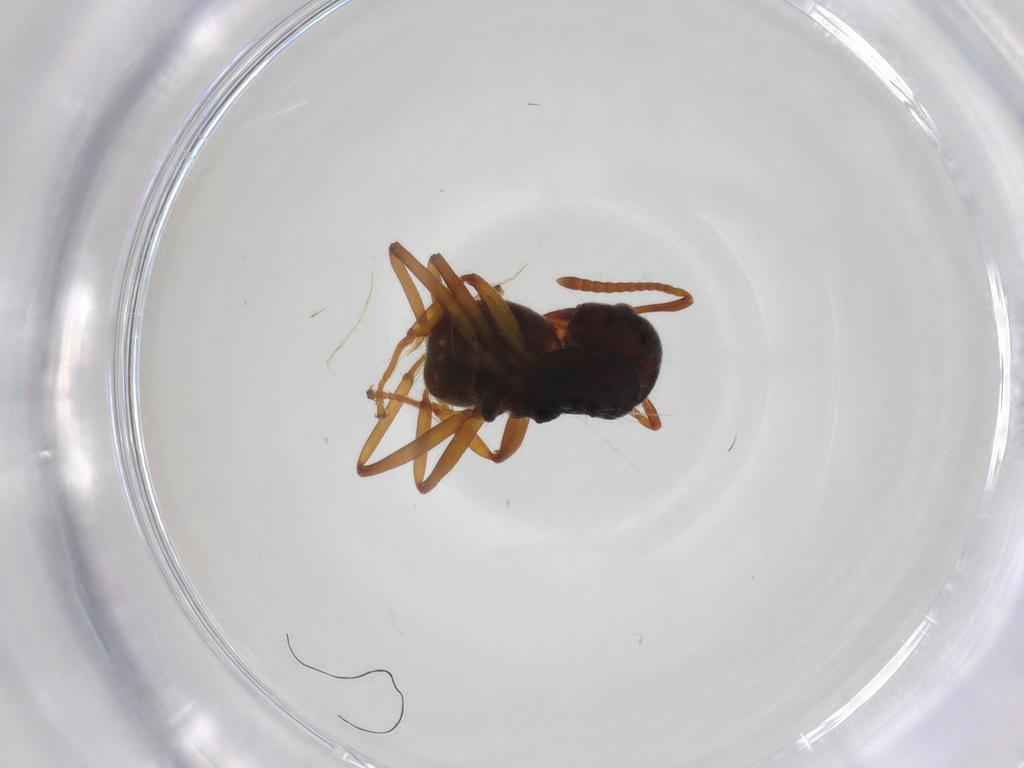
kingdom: Animalia
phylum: Arthropoda
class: Insecta
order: Hymenoptera
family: Formicidae
